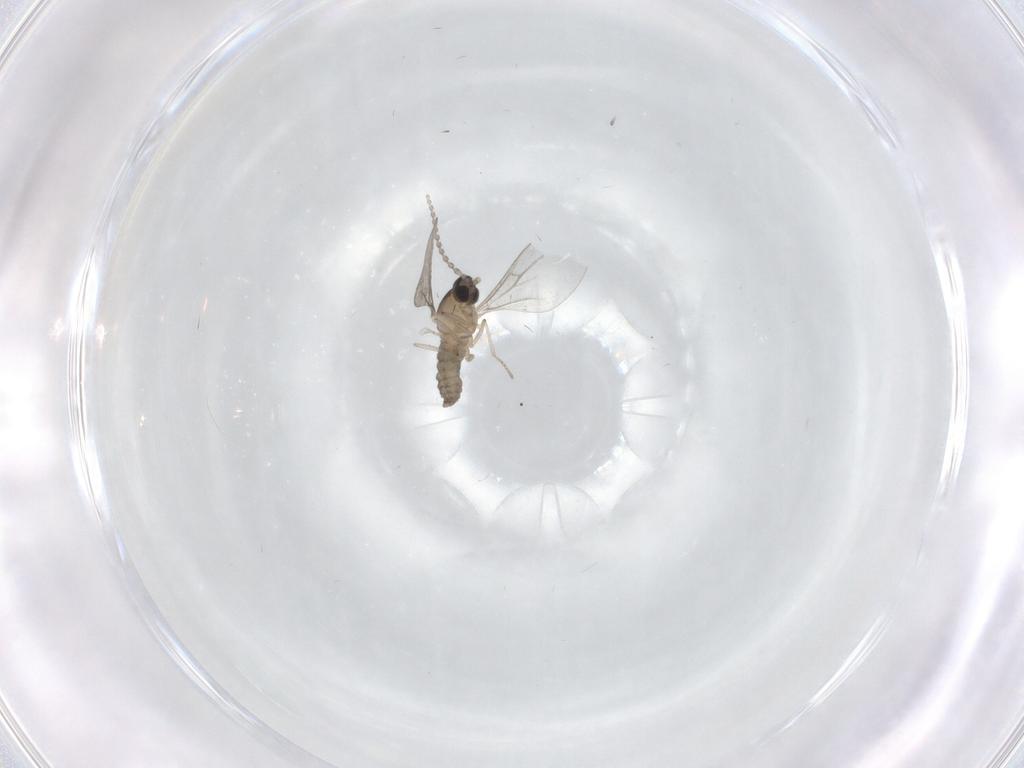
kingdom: Animalia
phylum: Arthropoda
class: Insecta
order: Diptera
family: Cecidomyiidae
